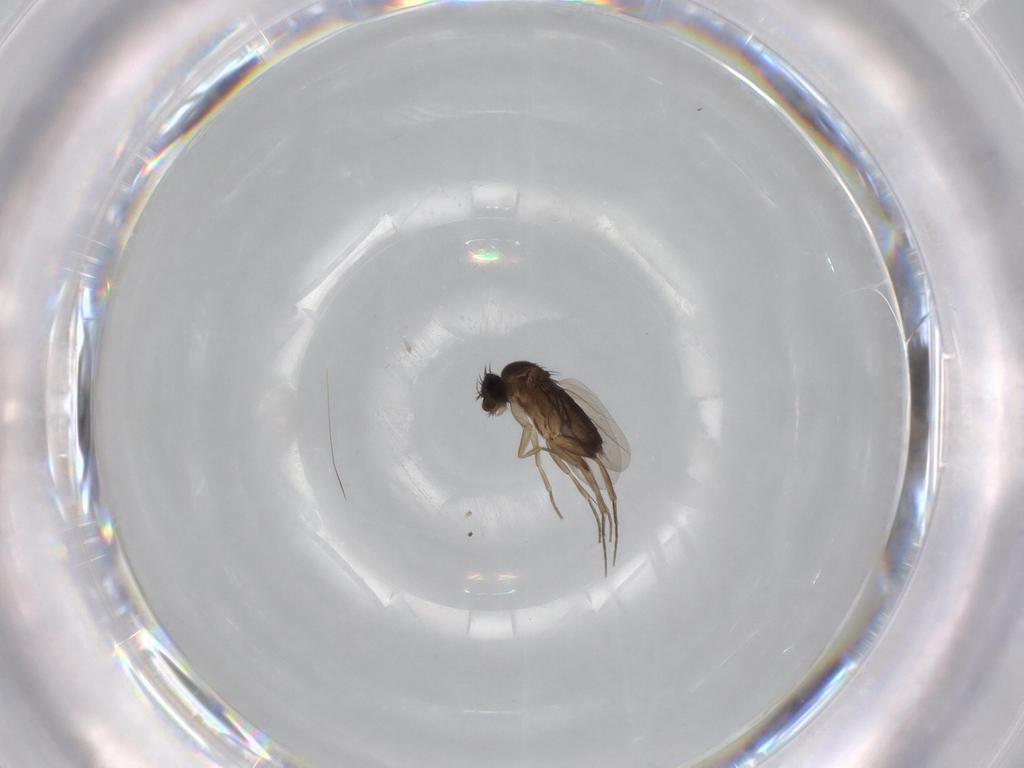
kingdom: Animalia
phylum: Arthropoda
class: Insecta
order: Diptera
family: Phoridae
